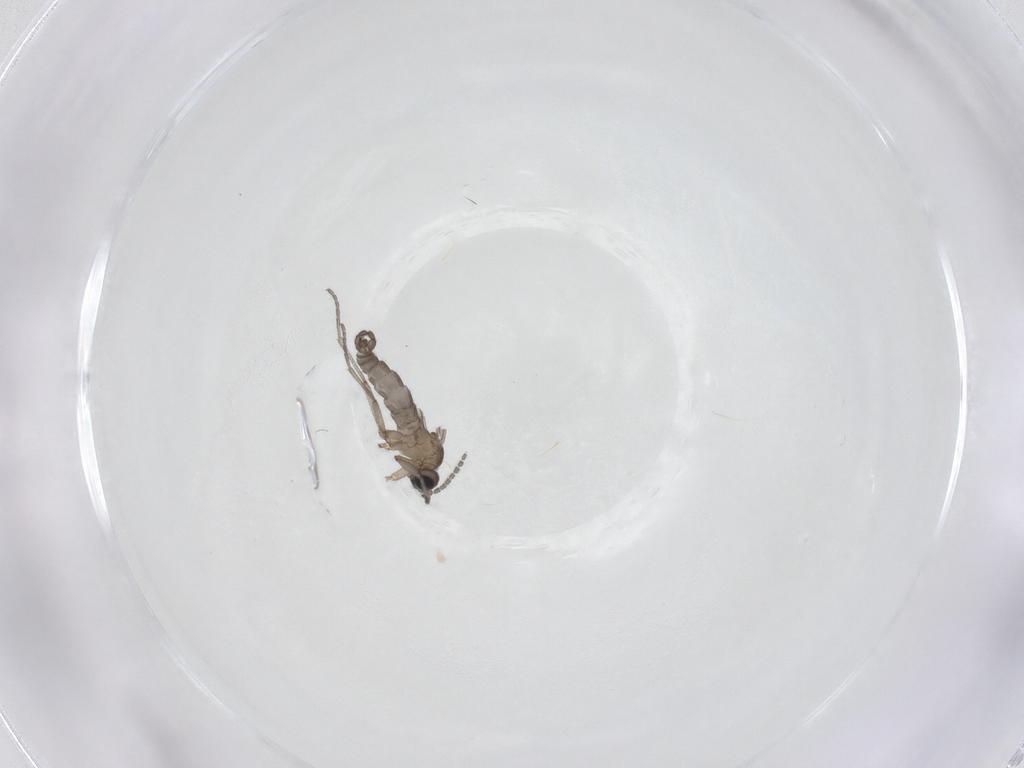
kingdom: Animalia
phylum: Arthropoda
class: Insecta
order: Diptera
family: Sciaridae
